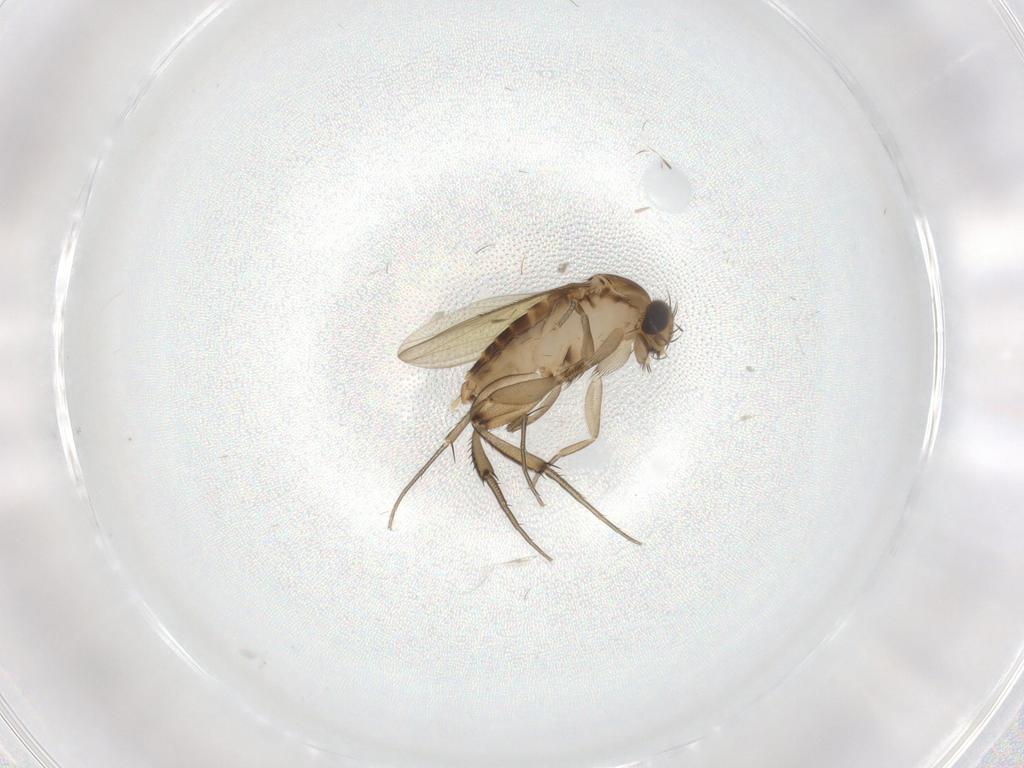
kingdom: Animalia
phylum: Arthropoda
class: Insecta
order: Diptera
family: Phoridae
